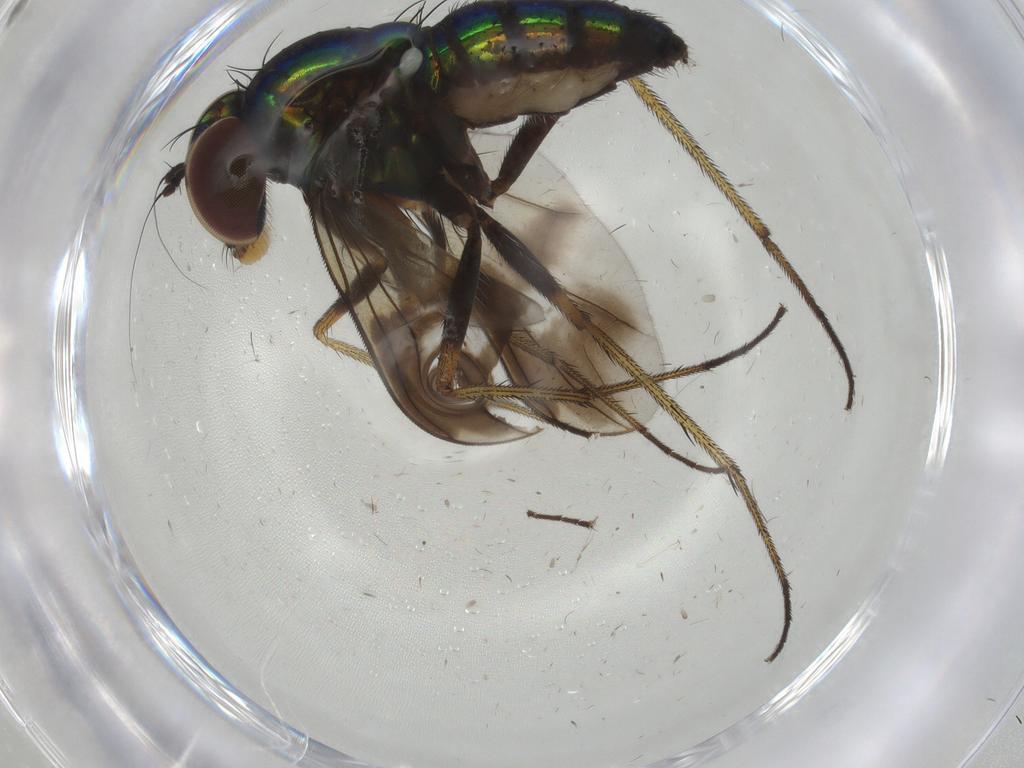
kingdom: Animalia
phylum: Arthropoda
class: Insecta
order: Diptera
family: Dolichopodidae
